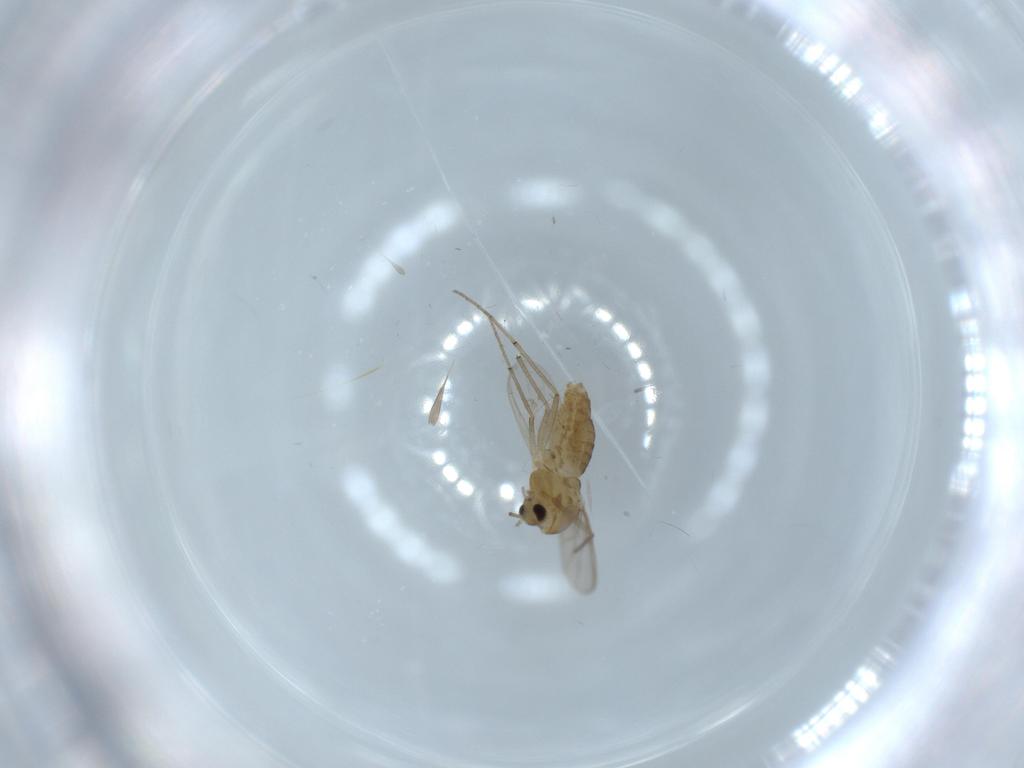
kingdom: Animalia
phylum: Arthropoda
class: Insecta
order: Diptera
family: Chironomidae
